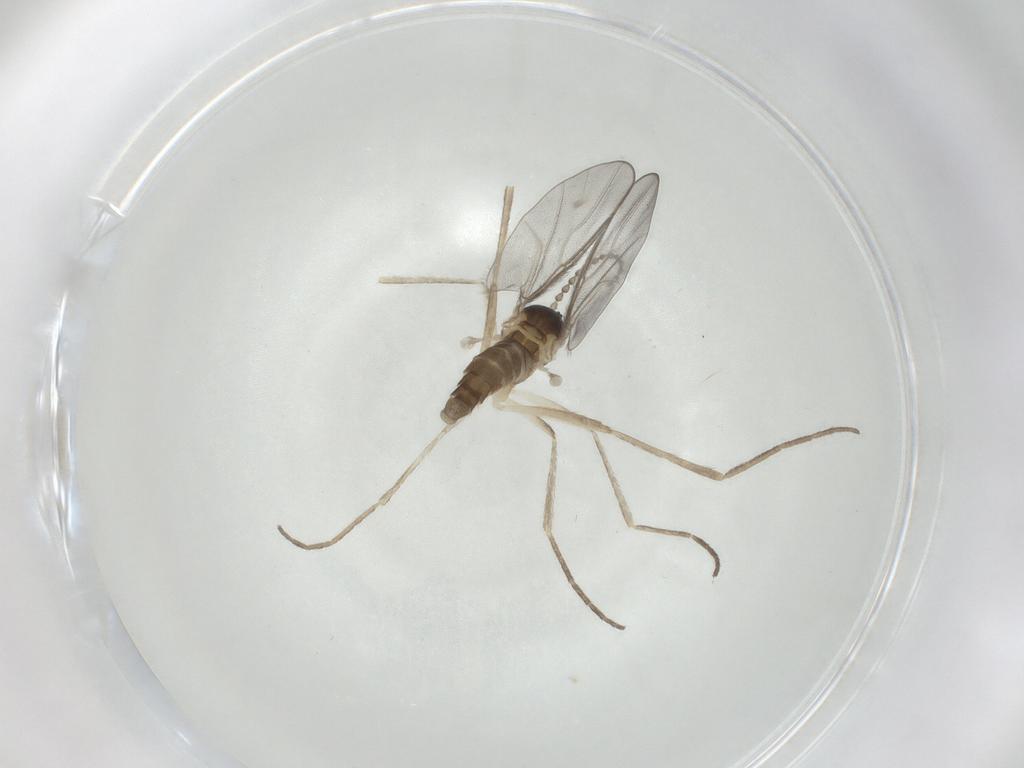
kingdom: Animalia
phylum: Arthropoda
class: Insecta
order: Diptera
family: Cecidomyiidae
